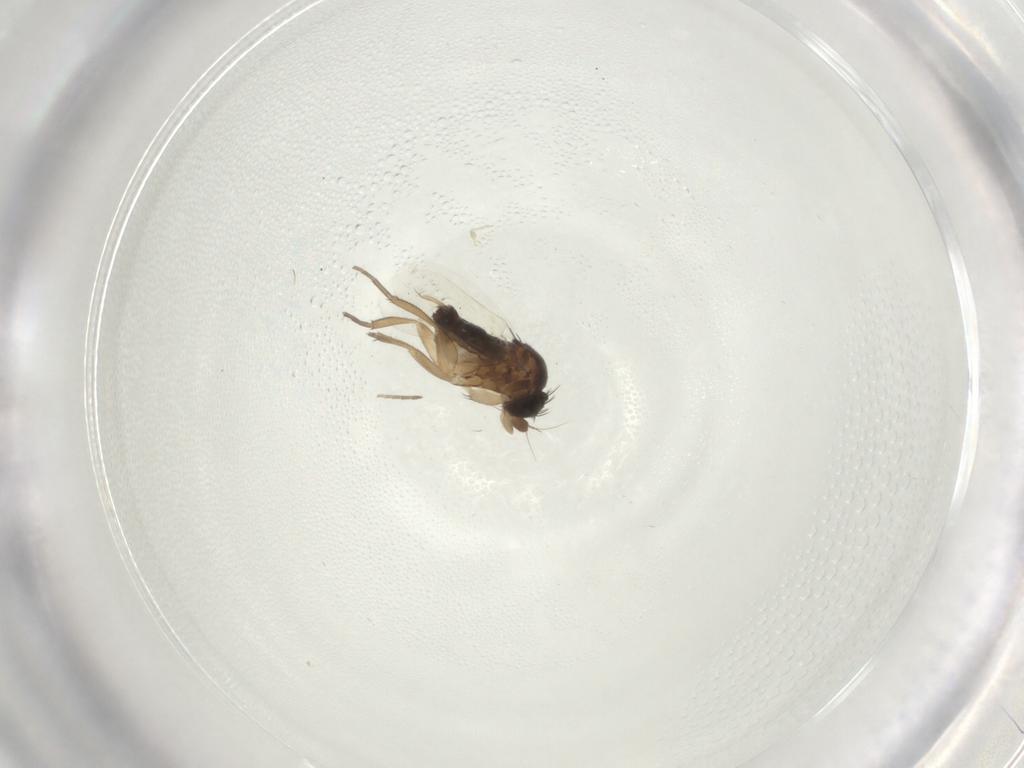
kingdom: Animalia
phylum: Arthropoda
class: Insecta
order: Diptera
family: Phoridae
